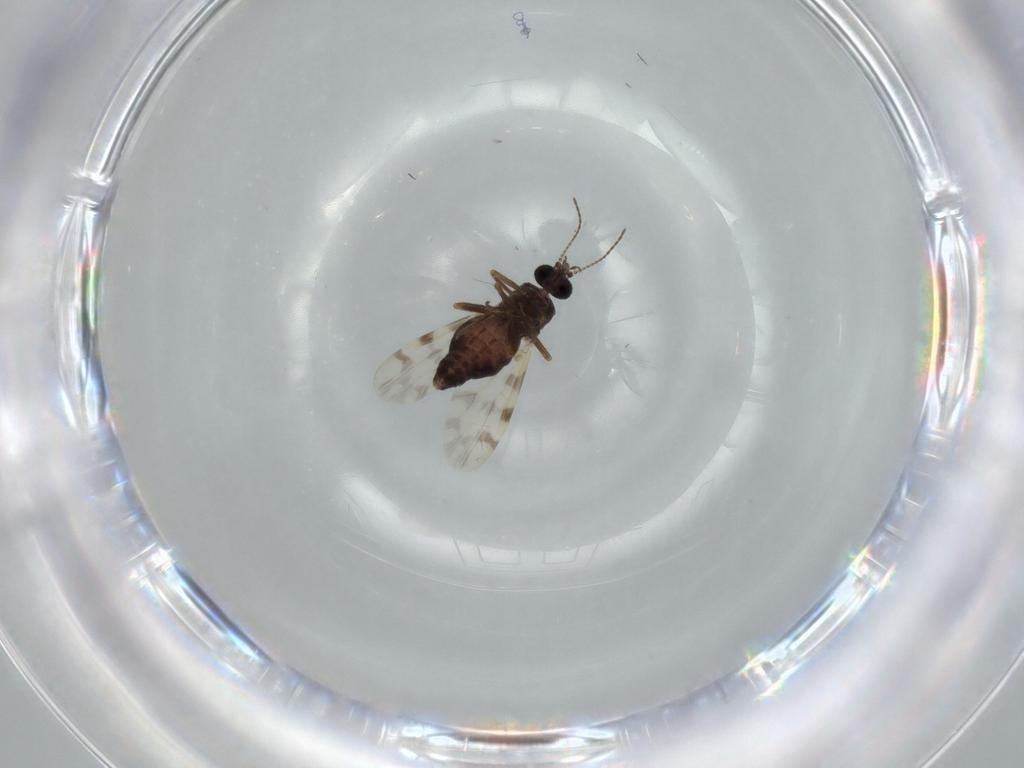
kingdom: Animalia
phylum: Arthropoda
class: Insecta
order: Diptera
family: Ceratopogonidae
